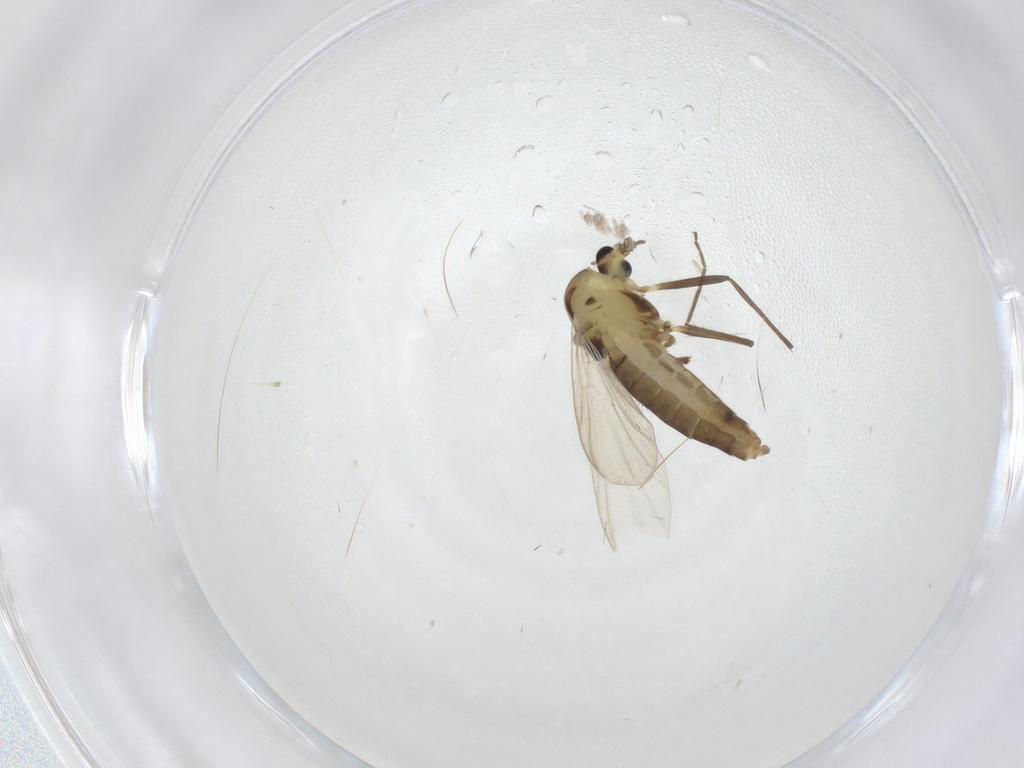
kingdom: Animalia
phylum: Arthropoda
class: Insecta
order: Diptera
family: Chironomidae
